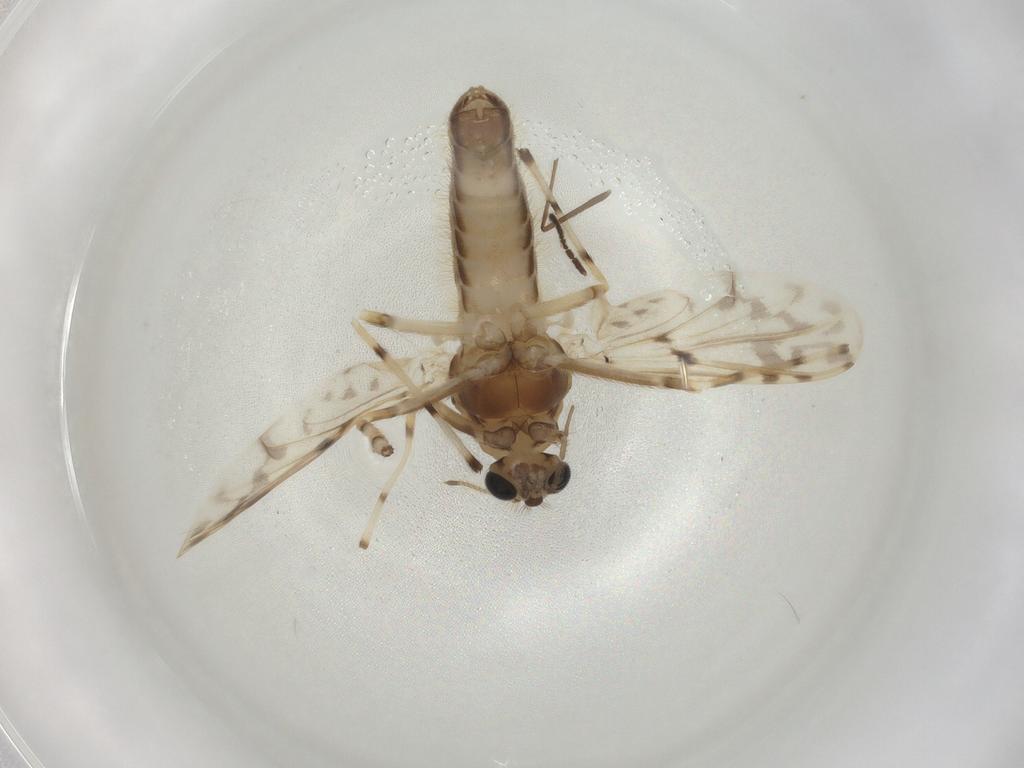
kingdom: Animalia
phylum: Arthropoda
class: Insecta
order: Diptera
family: Chironomidae
